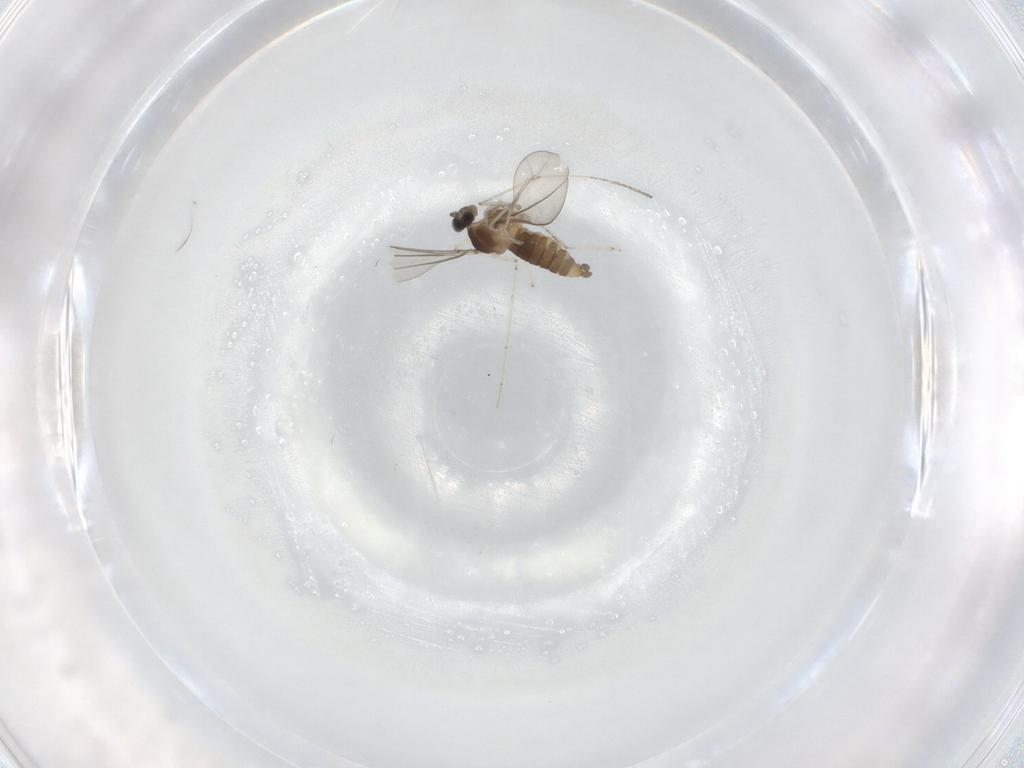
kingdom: Animalia
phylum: Arthropoda
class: Insecta
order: Diptera
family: Cecidomyiidae
